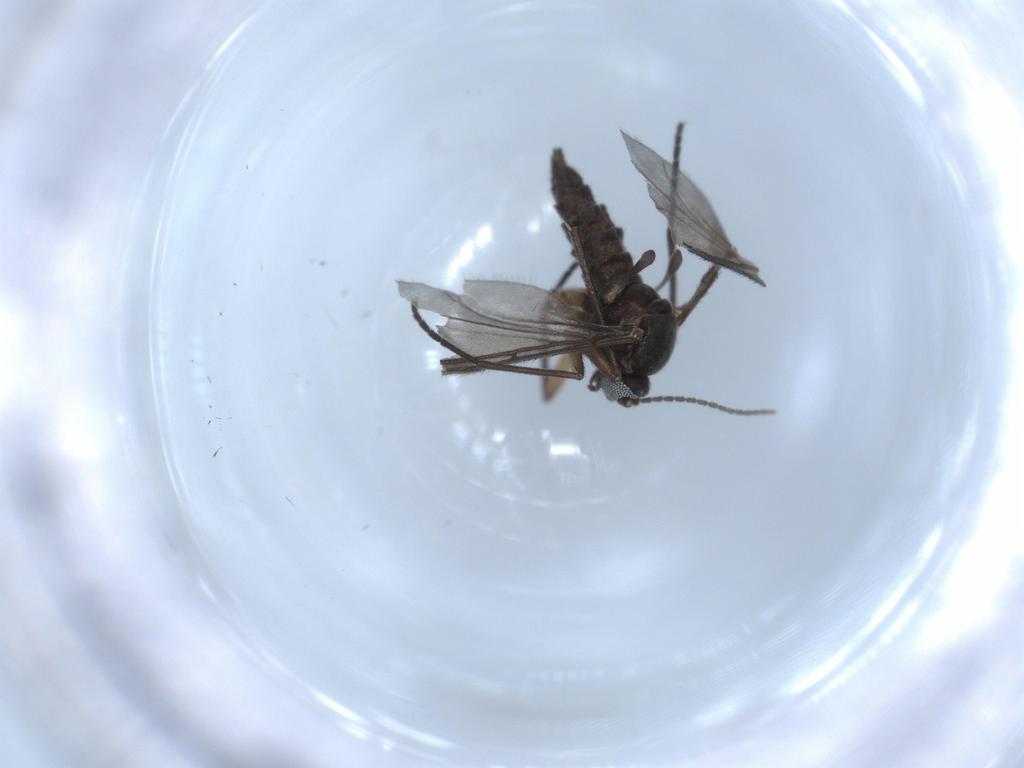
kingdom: Animalia
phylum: Arthropoda
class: Insecta
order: Diptera
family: Sciaridae
